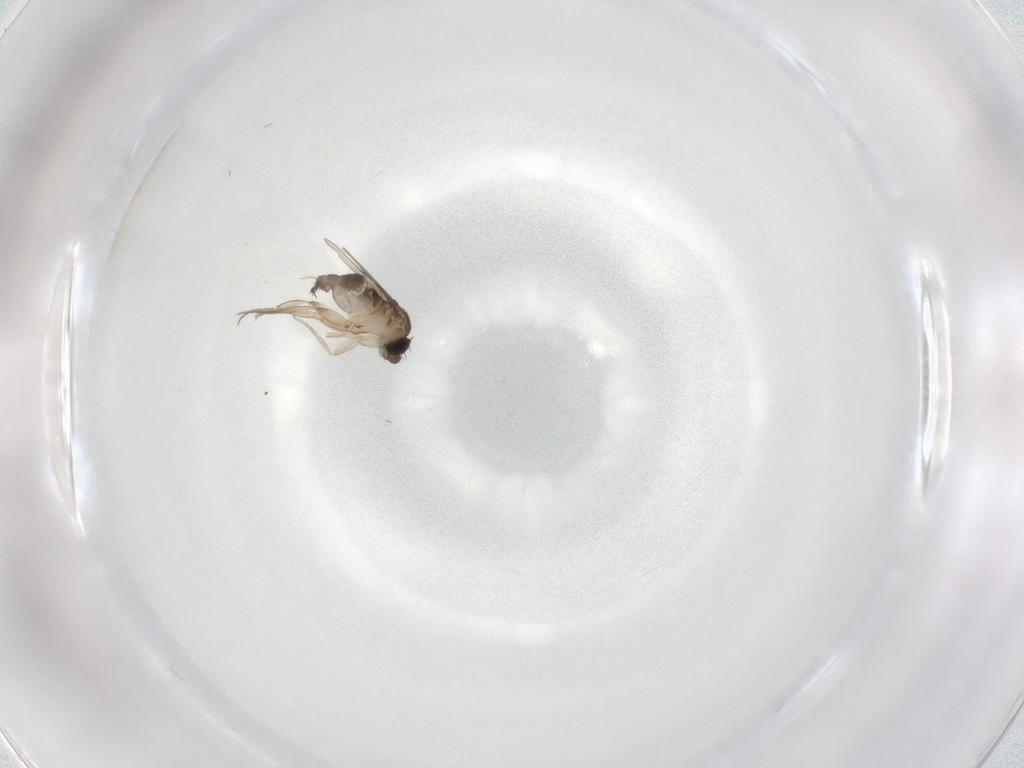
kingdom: Animalia
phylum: Arthropoda
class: Insecta
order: Diptera
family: Phoridae
